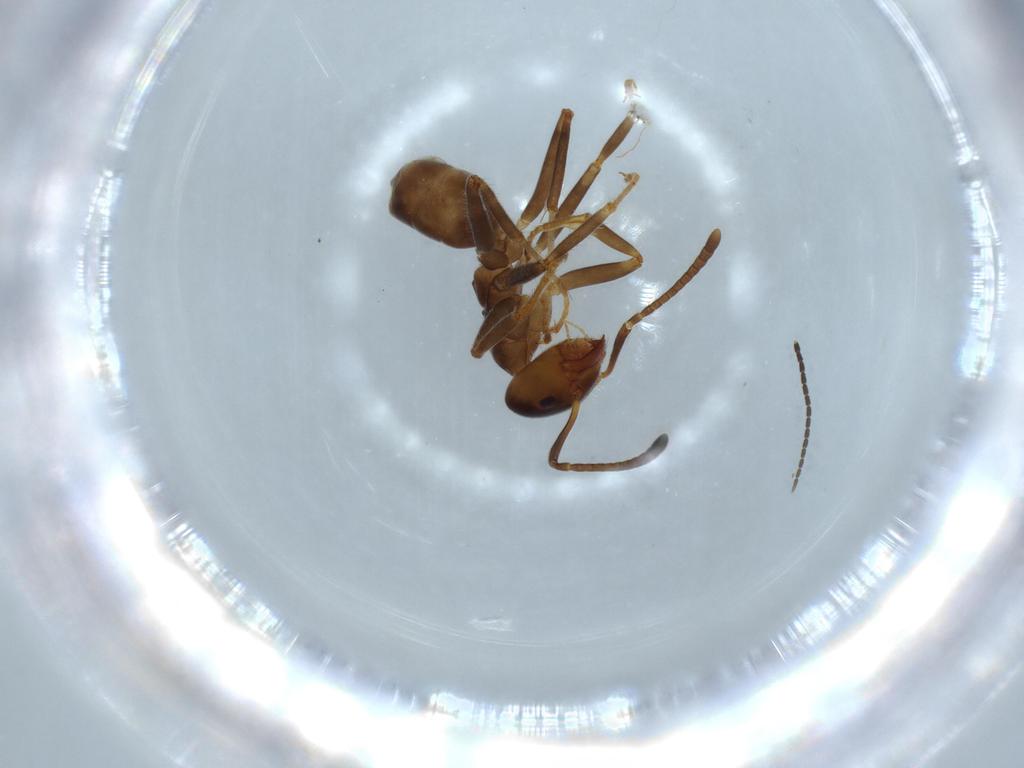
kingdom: Animalia
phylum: Arthropoda
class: Insecta
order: Hymenoptera
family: Formicidae
